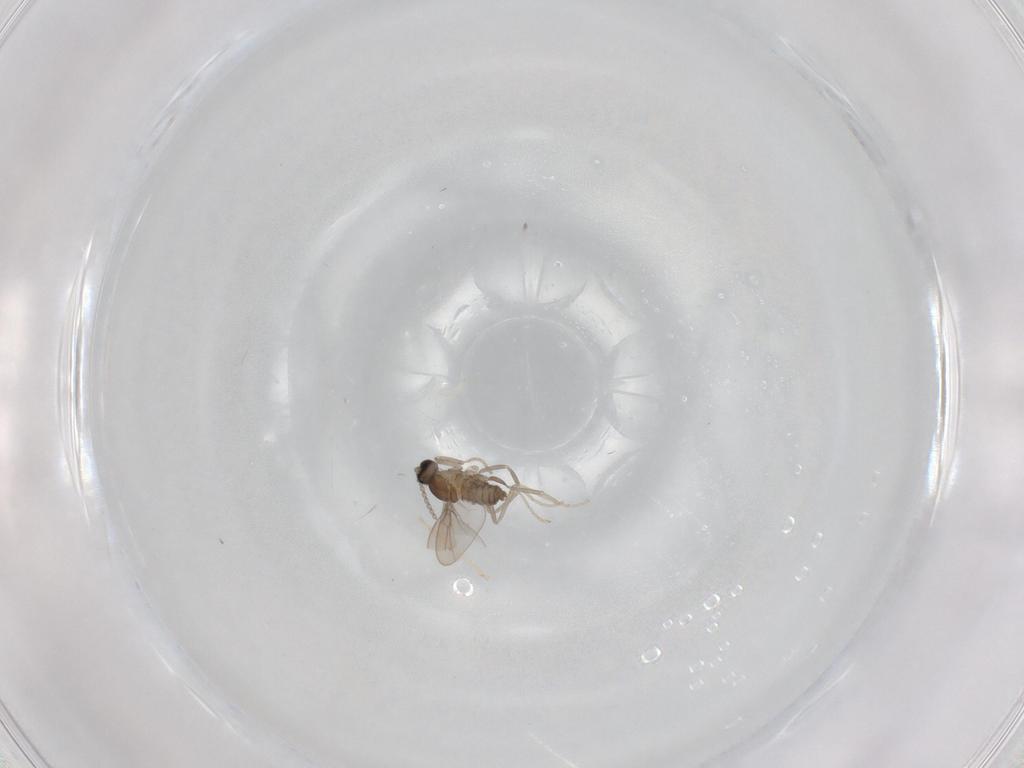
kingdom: Animalia
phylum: Arthropoda
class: Insecta
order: Diptera
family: Cecidomyiidae
